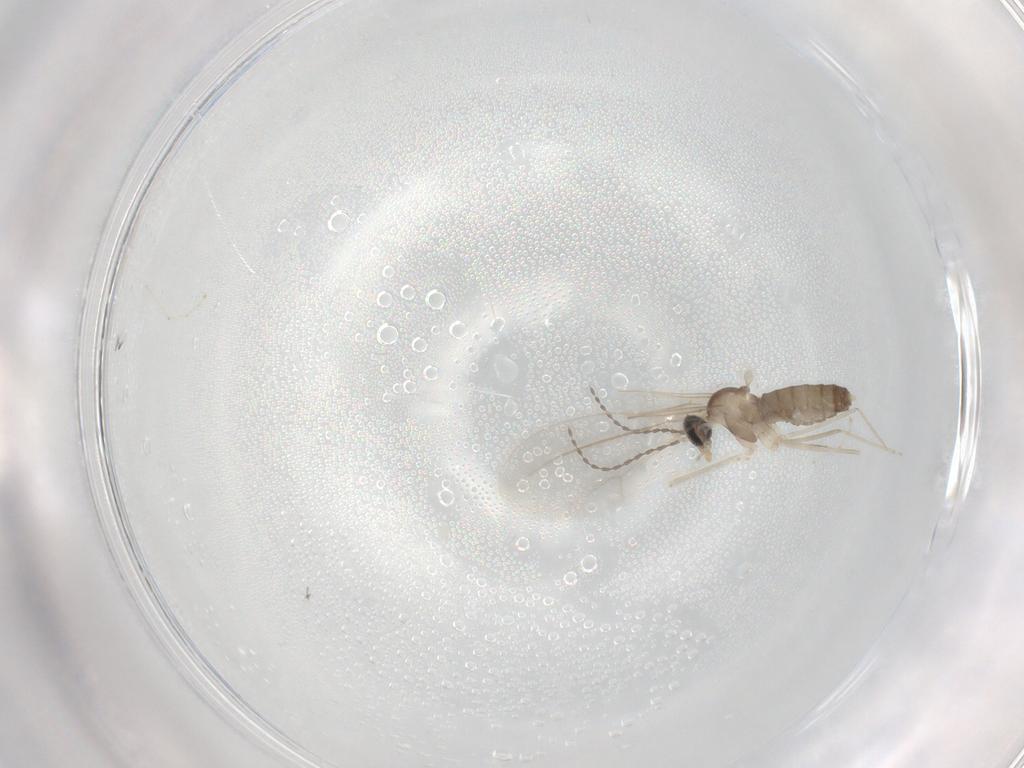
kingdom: Animalia
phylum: Arthropoda
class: Insecta
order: Diptera
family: Cecidomyiidae
